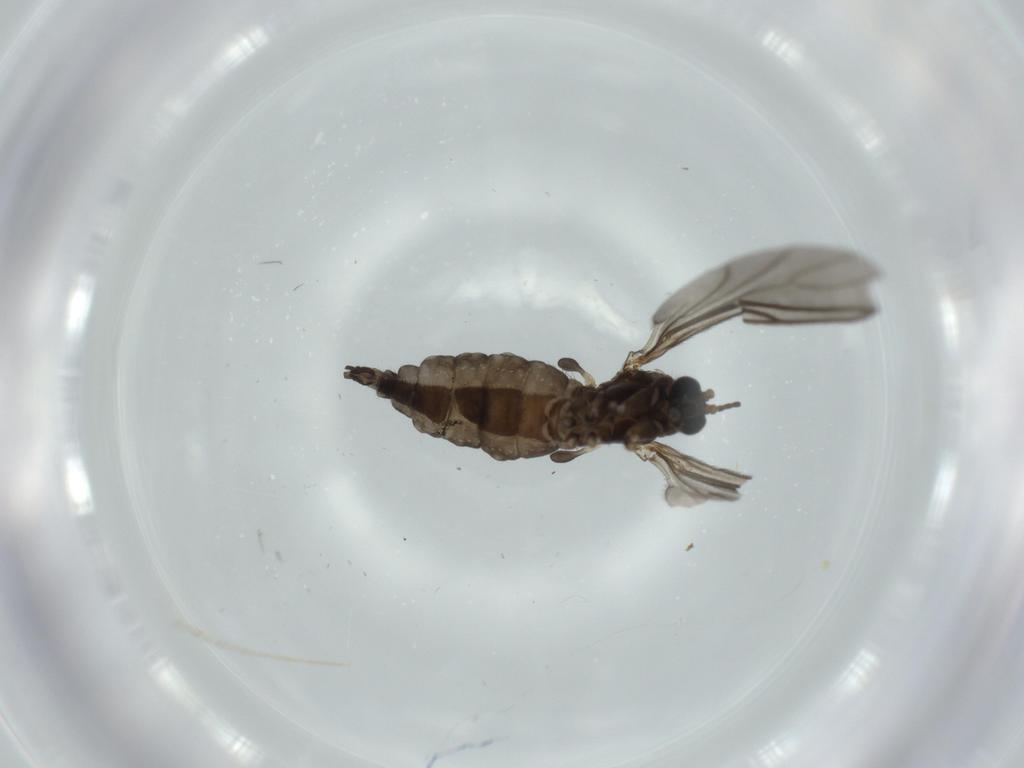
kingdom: Animalia
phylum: Arthropoda
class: Insecta
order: Diptera
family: Sciaridae
